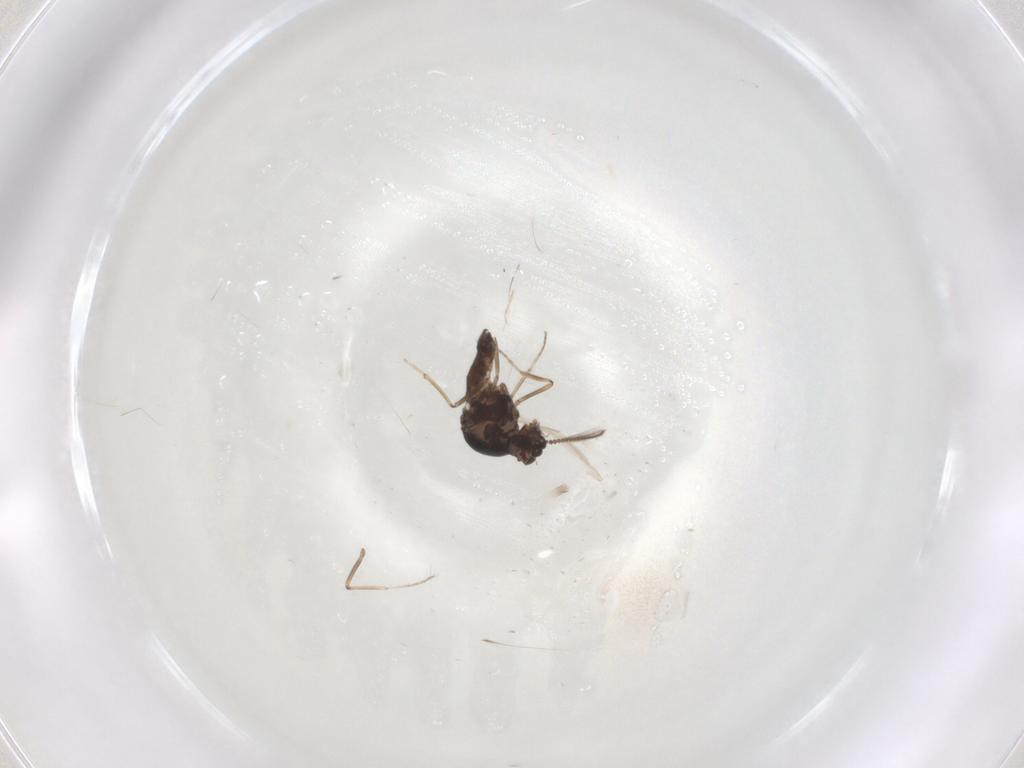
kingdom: Animalia
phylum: Arthropoda
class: Insecta
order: Diptera
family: Ceratopogonidae
